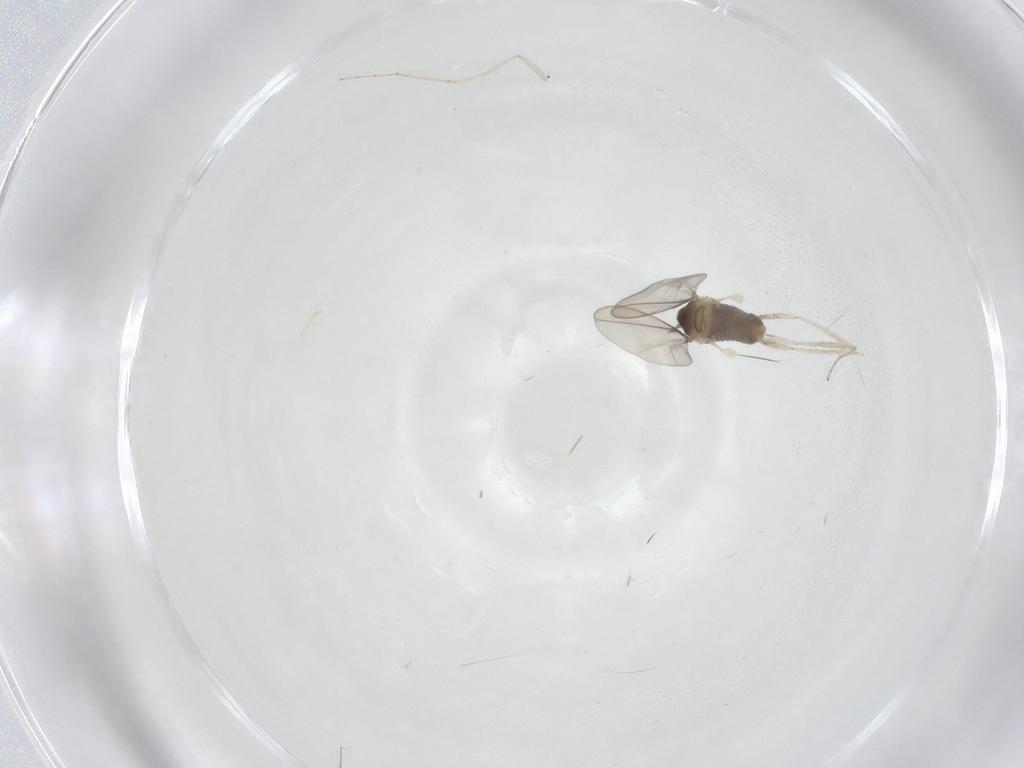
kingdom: Animalia
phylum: Arthropoda
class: Insecta
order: Diptera
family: Cecidomyiidae
